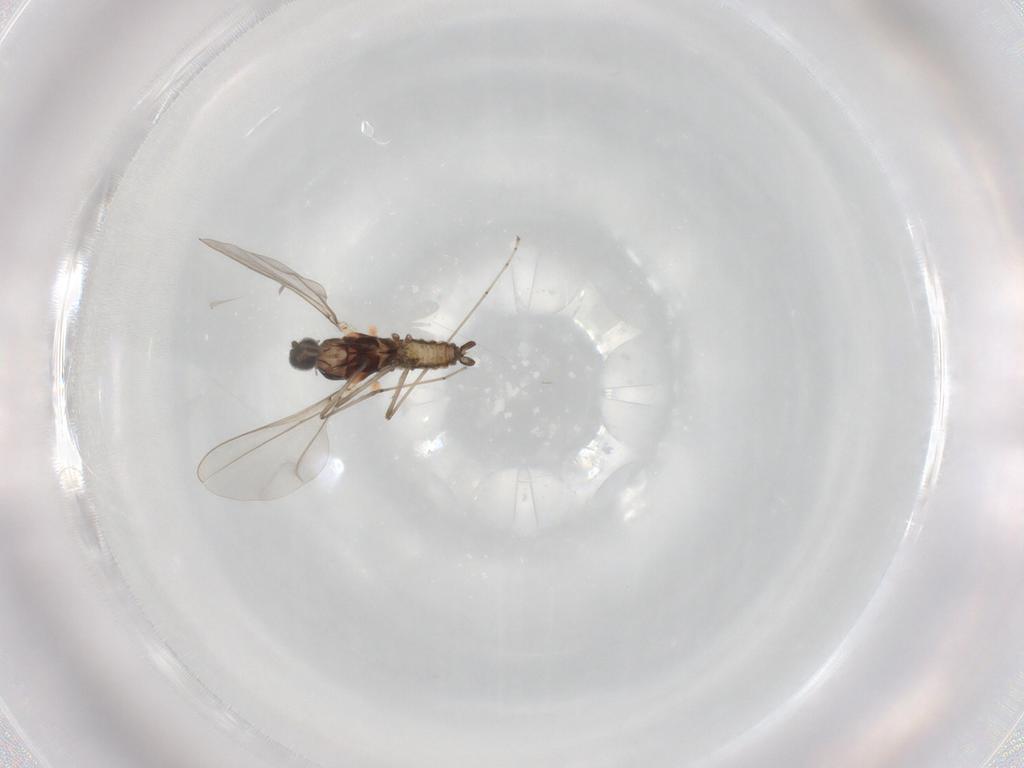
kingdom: Animalia
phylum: Arthropoda
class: Insecta
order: Diptera
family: Cecidomyiidae
